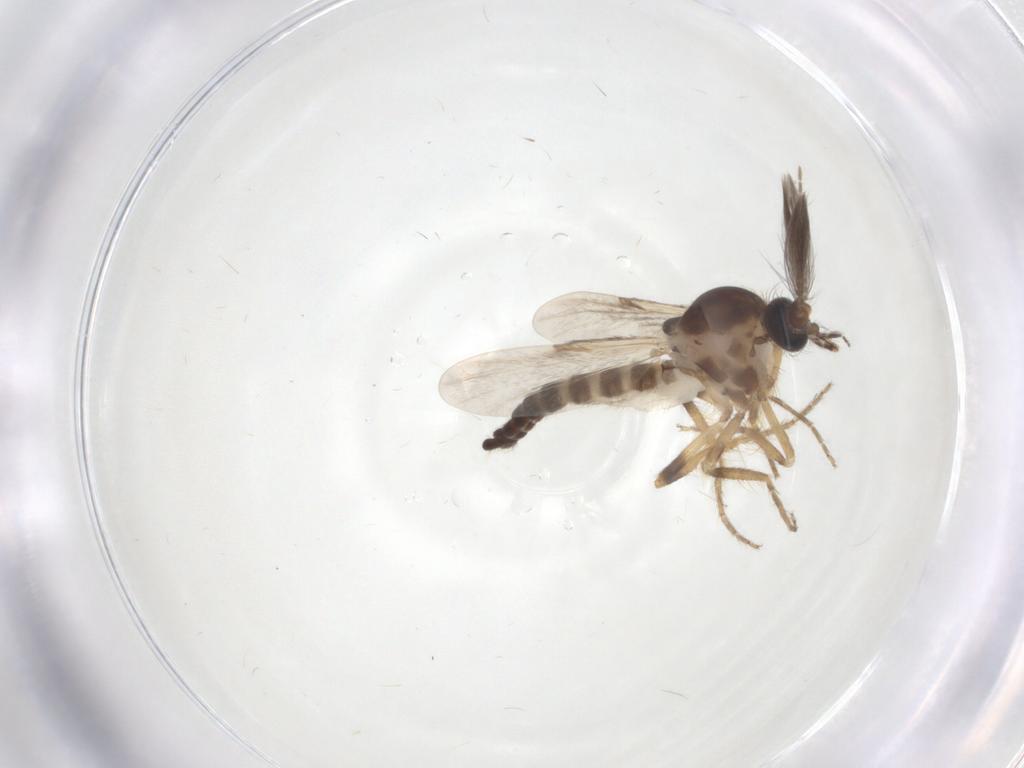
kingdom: Animalia
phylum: Arthropoda
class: Insecta
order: Diptera
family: Ceratopogonidae
